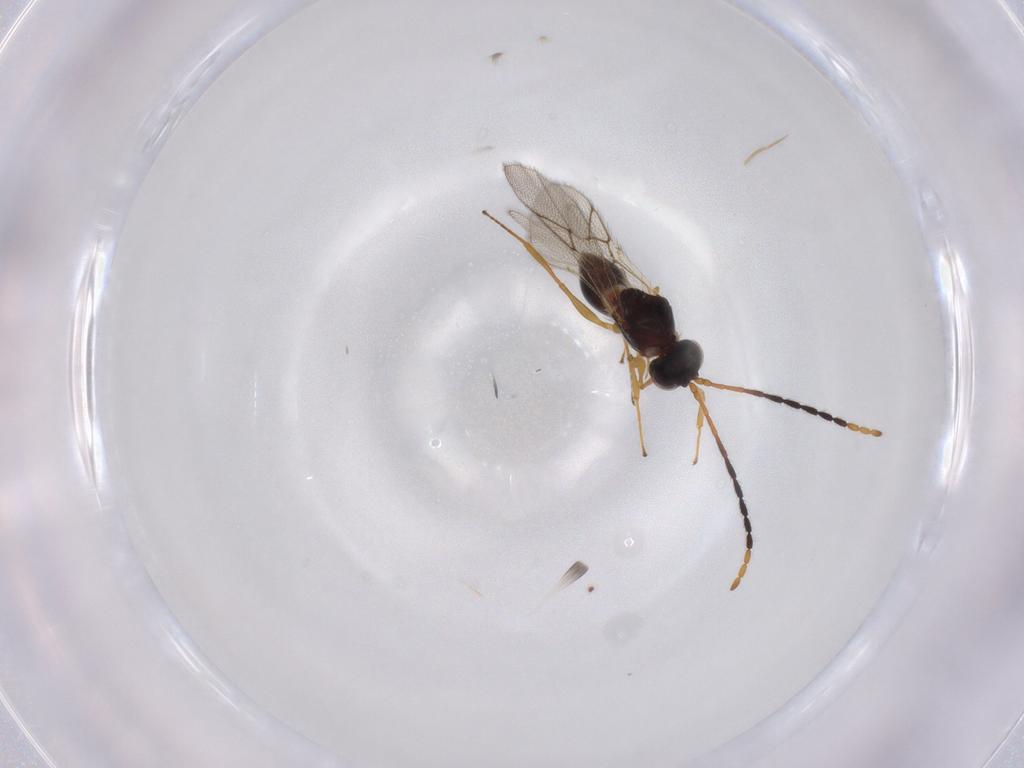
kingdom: Animalia
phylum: Arthropoda
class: Insecta
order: Hymenoptera
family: Figitidae
